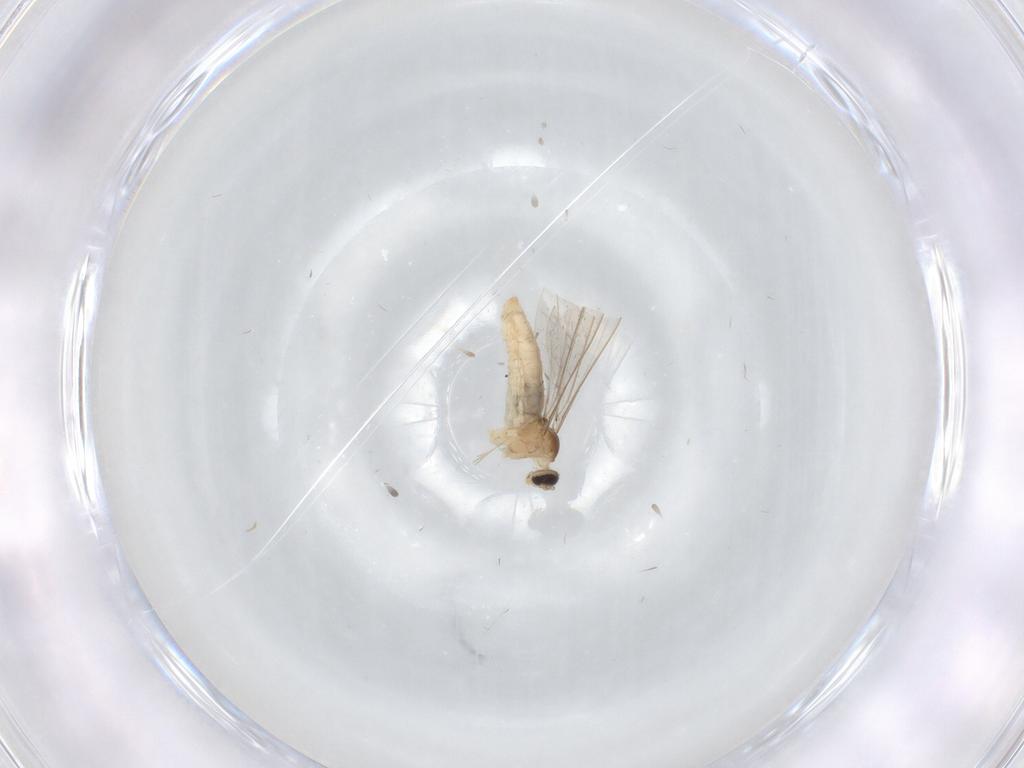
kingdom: Animalia
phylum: Arthropoda
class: Insecta
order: Diptera
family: Cecidomyiidae
